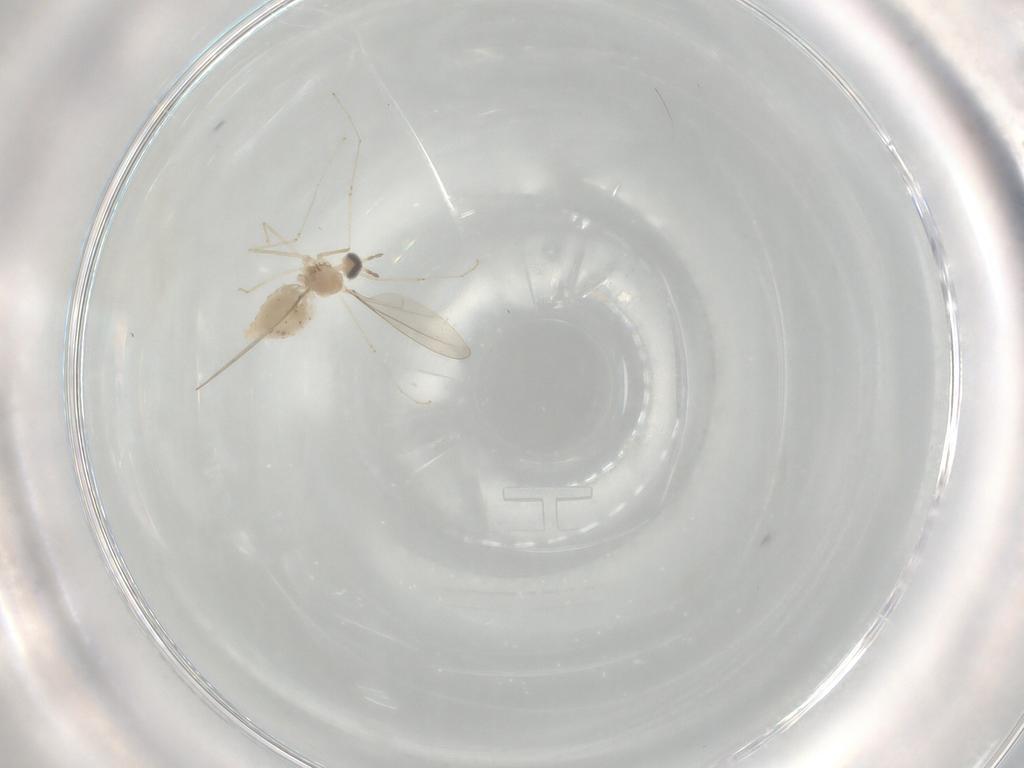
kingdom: Animalia
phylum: Arthropoda
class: Insecta
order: Diptera
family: Cecidomyiidae
